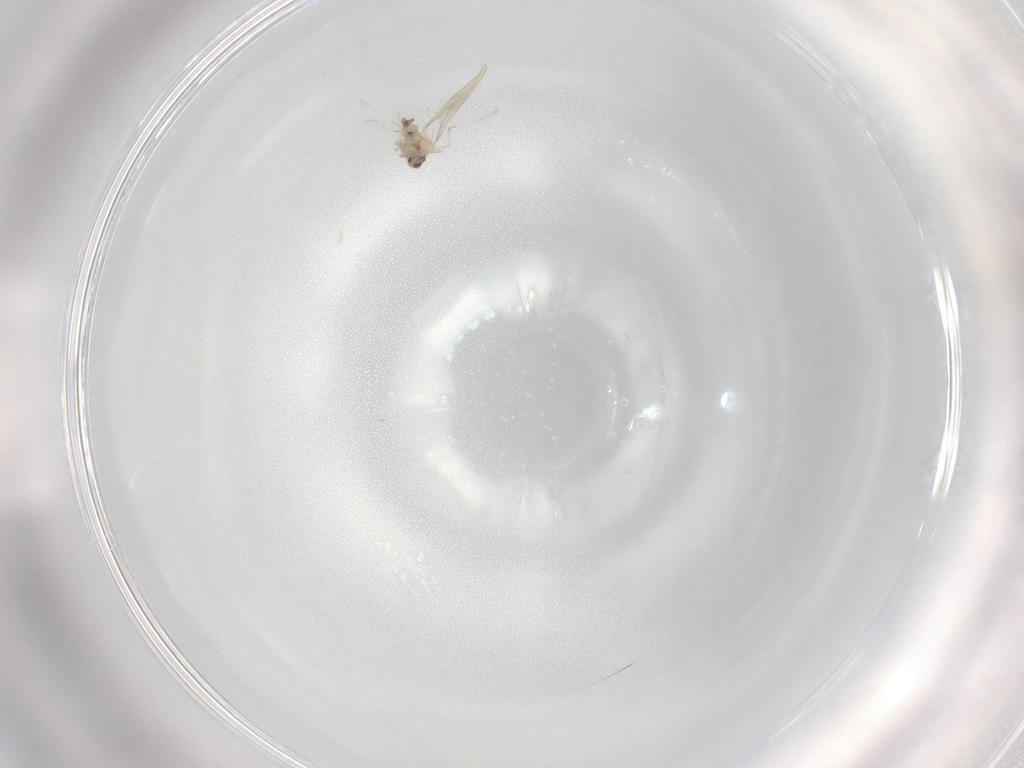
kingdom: Animalia
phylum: Arthropoda
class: Insecta
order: Diptera
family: Cecidomyiidae
